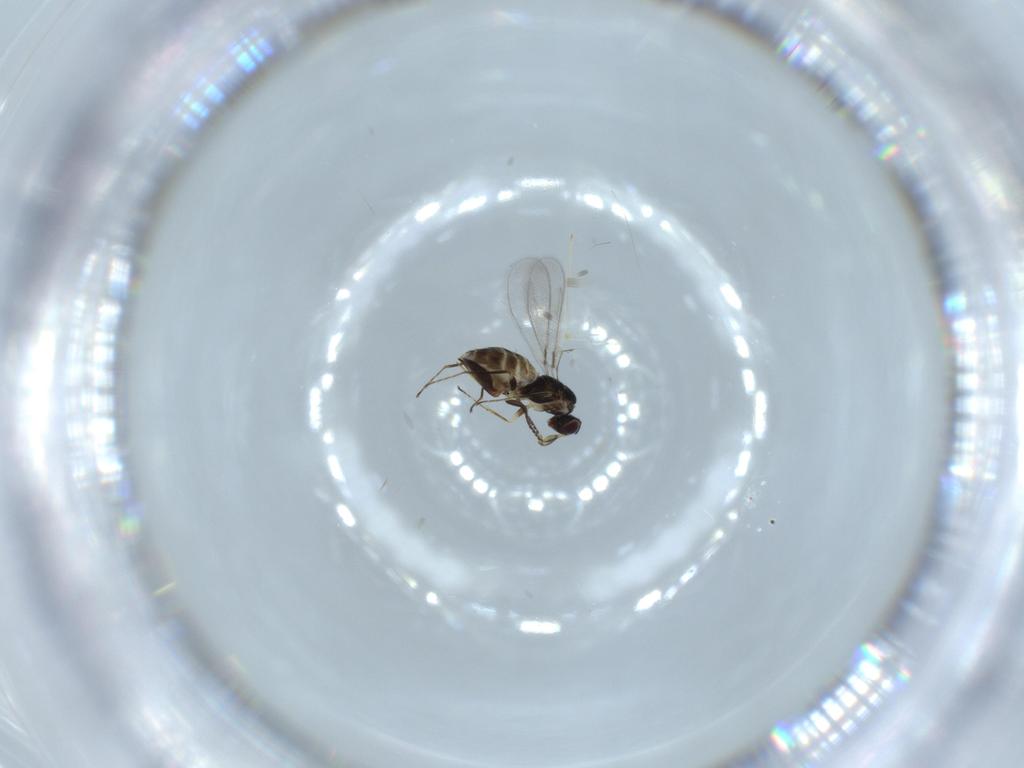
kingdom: Animalia
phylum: Arthropoda
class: Insecta
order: Hymenoptera
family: Mymaridae
